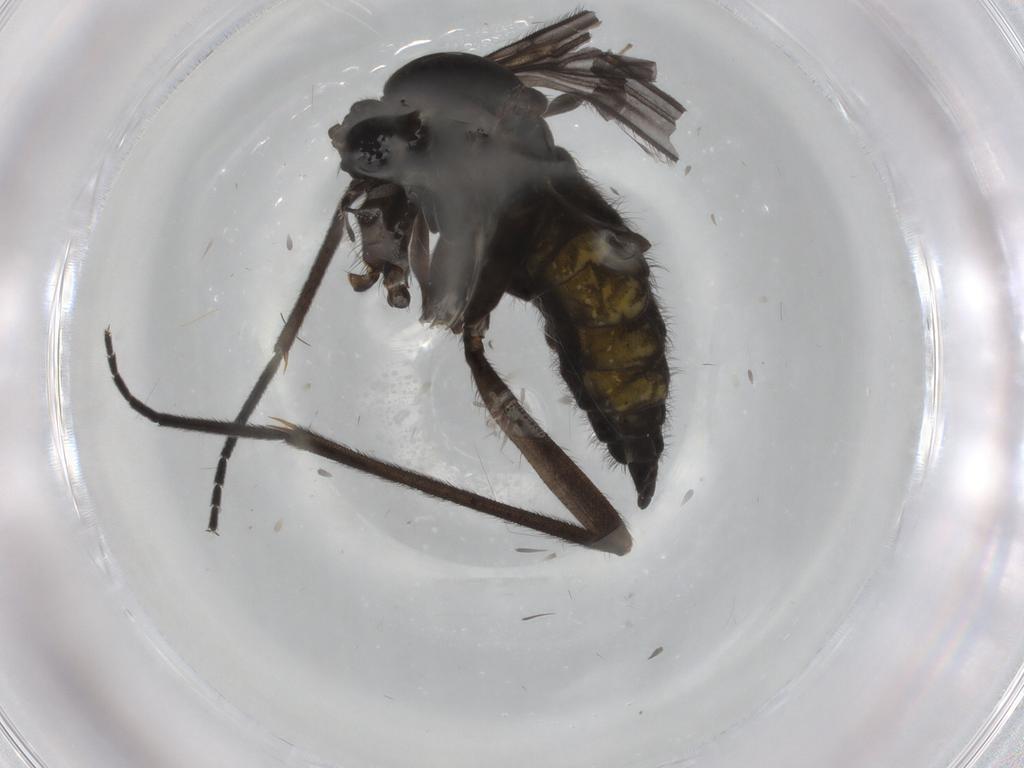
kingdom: Animalia
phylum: Arthropoda
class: Insecta
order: Diptera
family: Sciaridae
